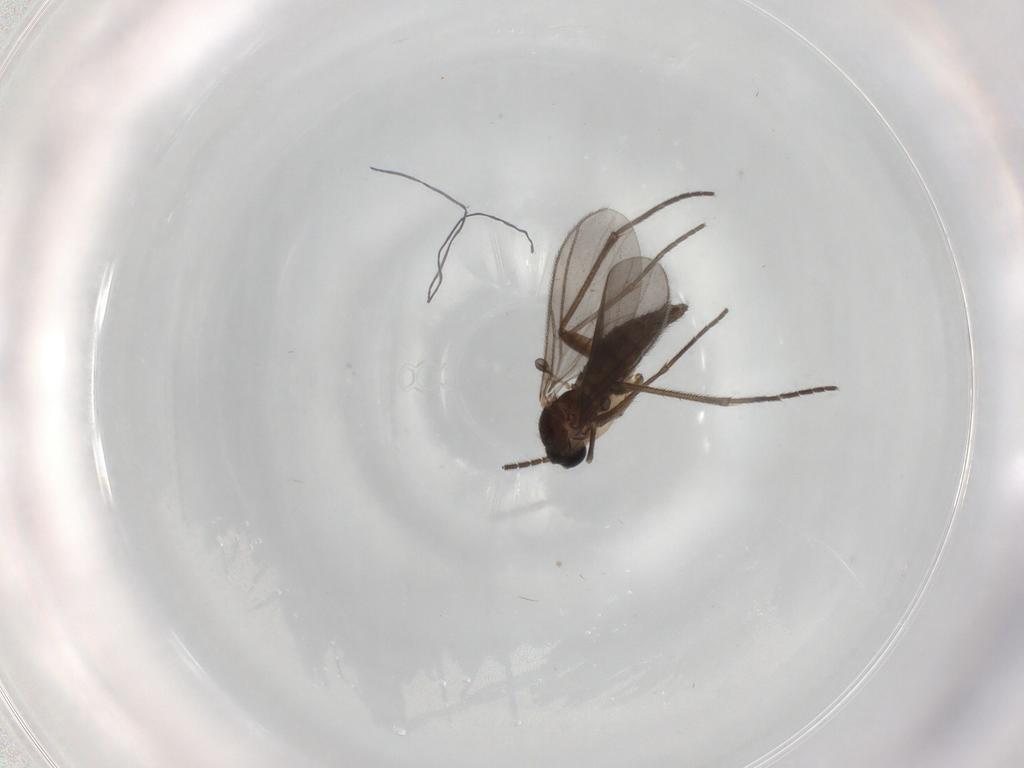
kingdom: Animalia
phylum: Arthropoda
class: Insecta
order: Diptera
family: Sciaridae
